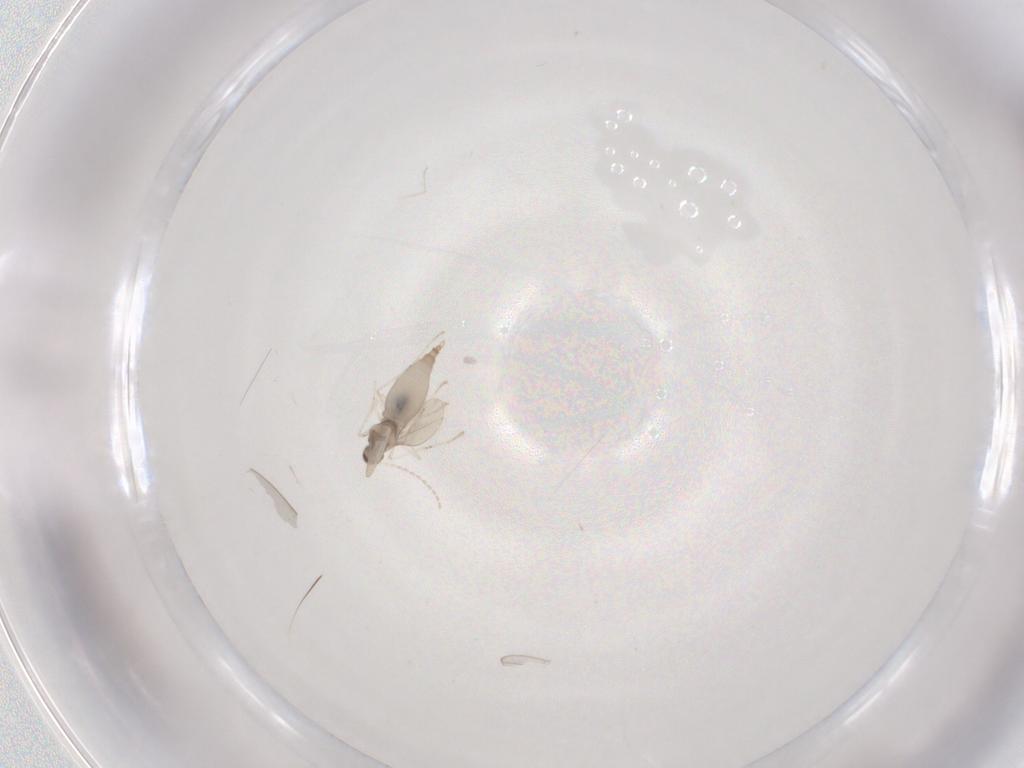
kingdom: Animalia
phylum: Arthropoda
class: Insecta
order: Diptera
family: Cecidomyiidae
